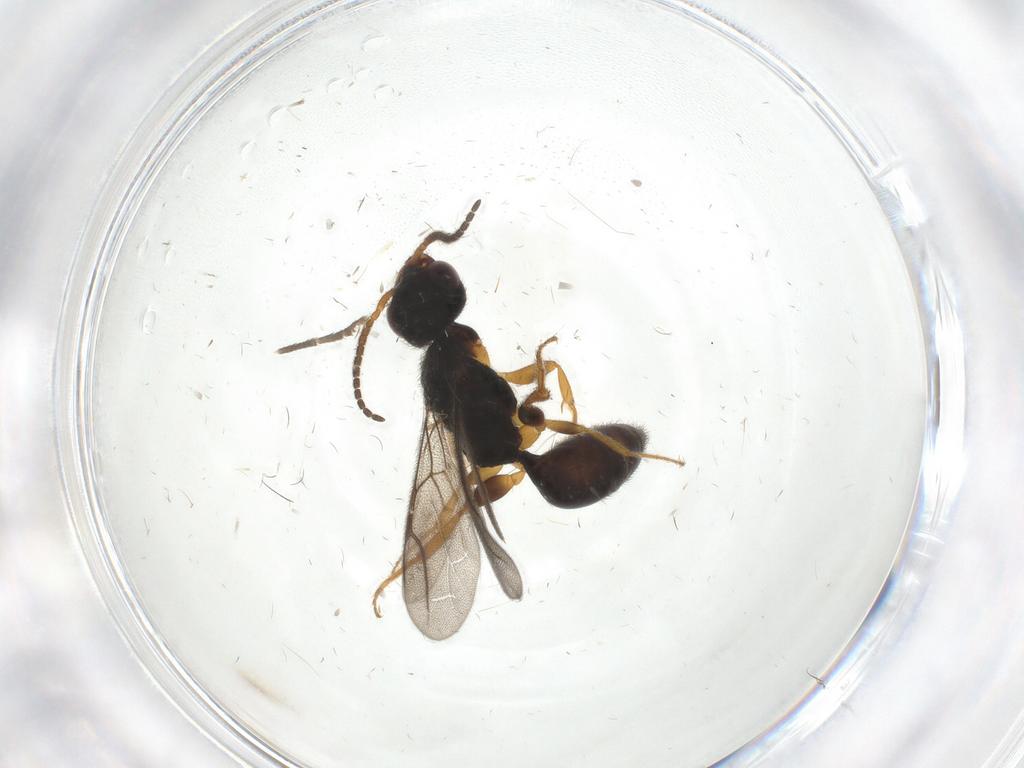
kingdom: Animalia
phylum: Arthropoda
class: Insecta
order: Hymenoptera
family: Bethylidae
